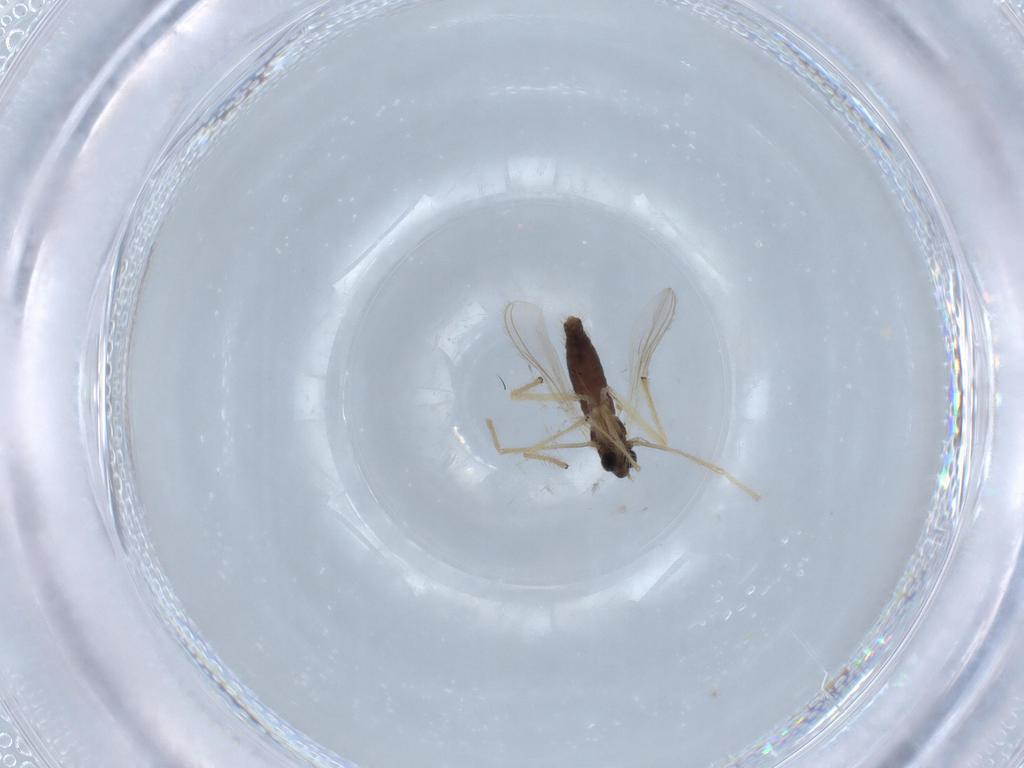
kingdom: Animalia
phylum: Arthropoda
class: Insecta
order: Diptera
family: Chironomidae
